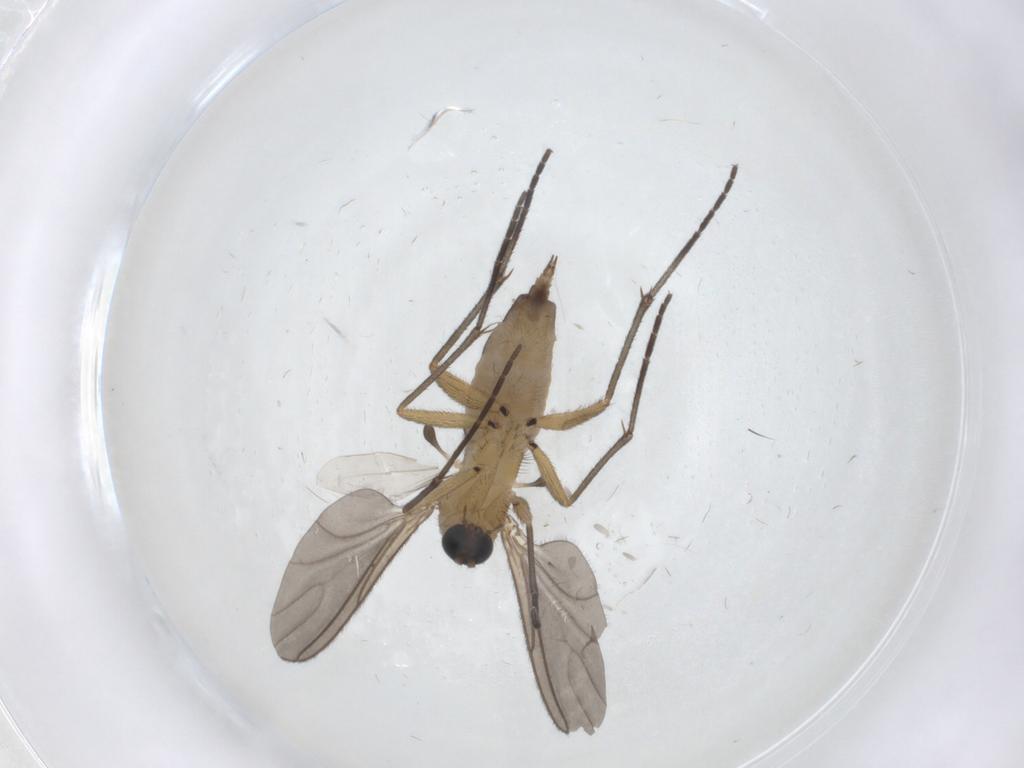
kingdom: Animalia
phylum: Arthropoda
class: Insecta
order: Diptera
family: Sciaridae
